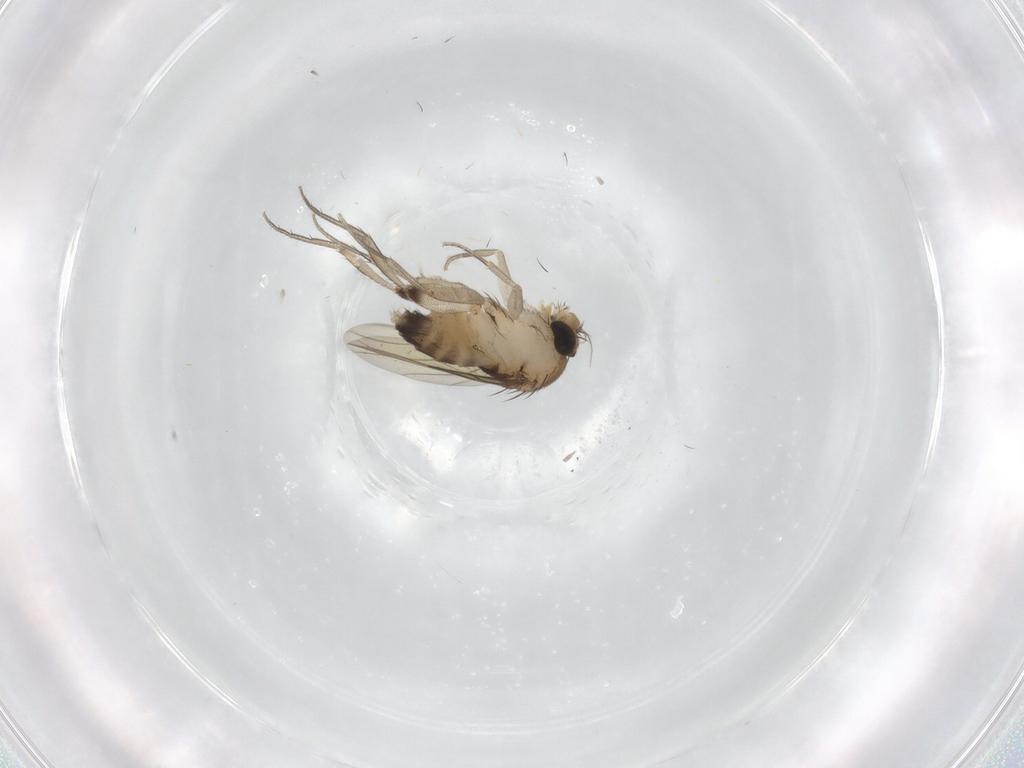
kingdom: Animalia
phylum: Arthropoda
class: Insecta
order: Diptera
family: Phoridae
